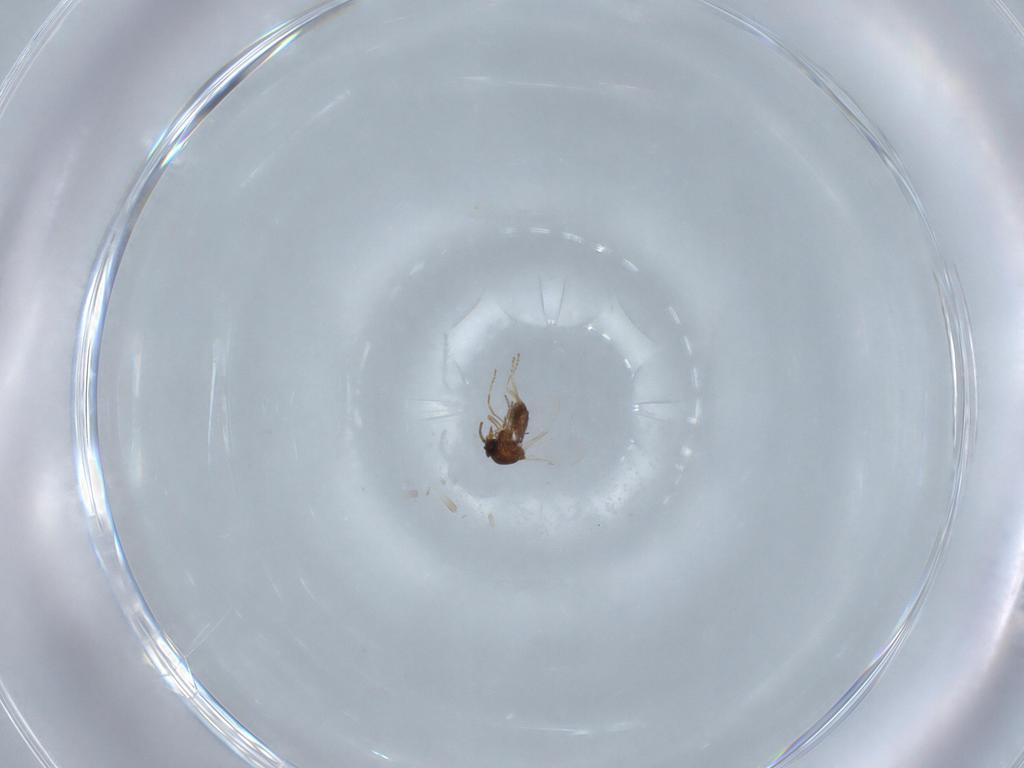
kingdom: Animalia
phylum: Arthropoda
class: Insecta
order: Diptera
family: Ceratopogonidae
